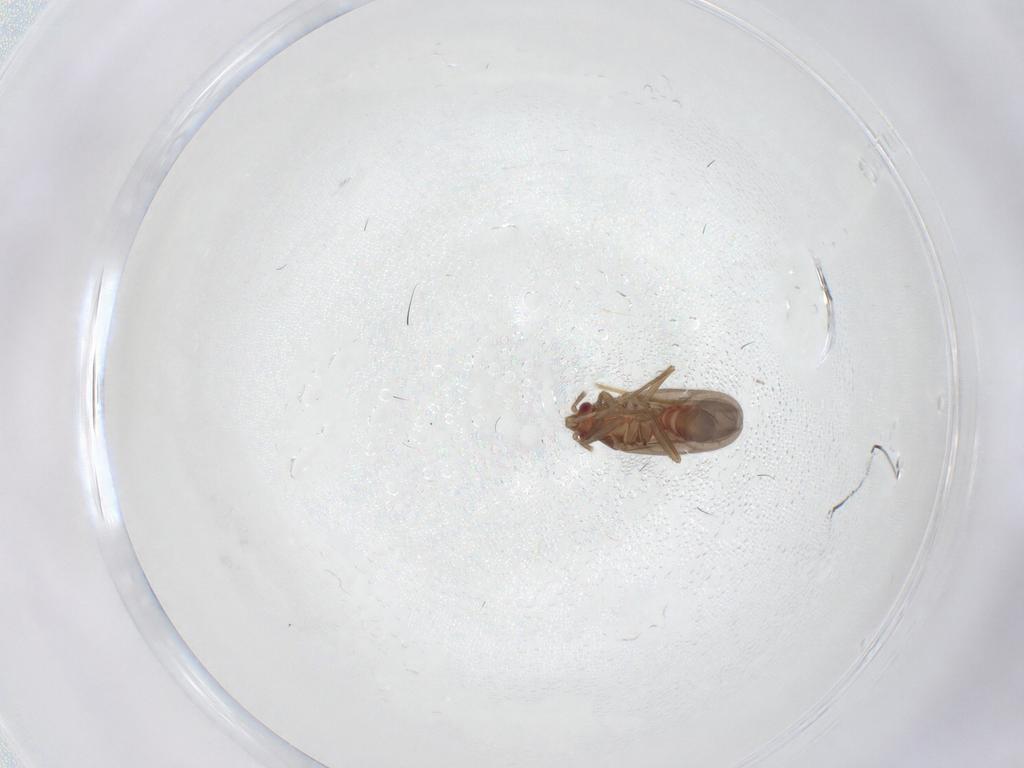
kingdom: Animalia
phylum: Arthropoda
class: Insecta
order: Hemiptera
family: Ceratocombidae
